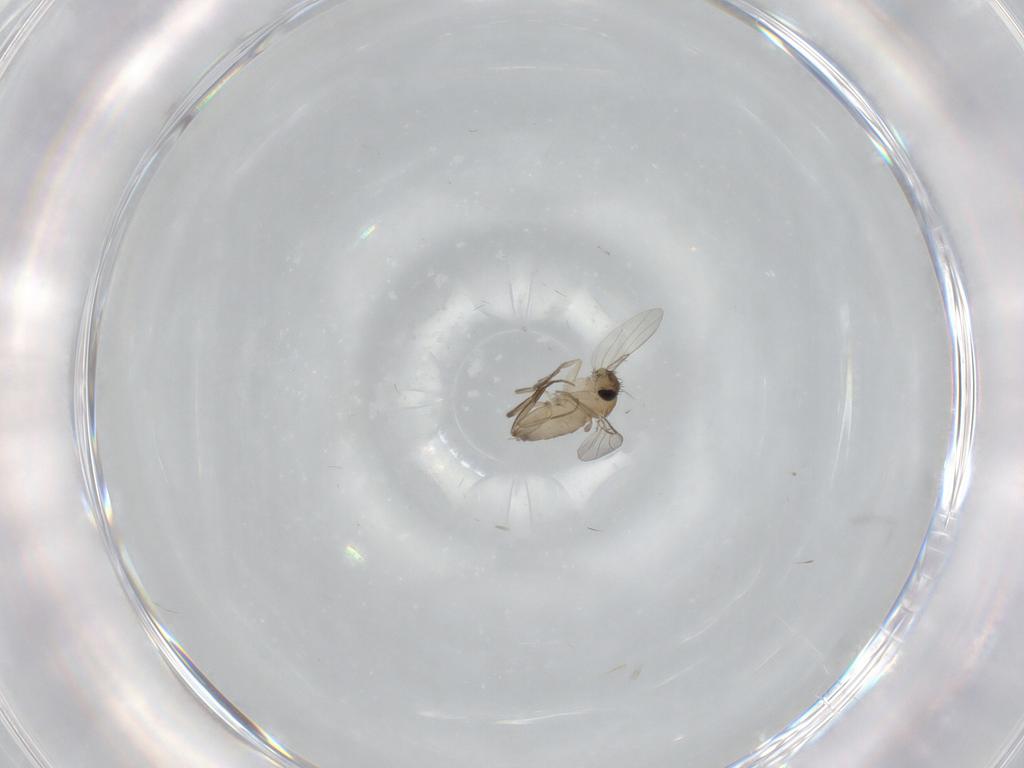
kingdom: Animalia
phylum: Arthropoda
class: Insecta
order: Diptera
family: Phoridae
